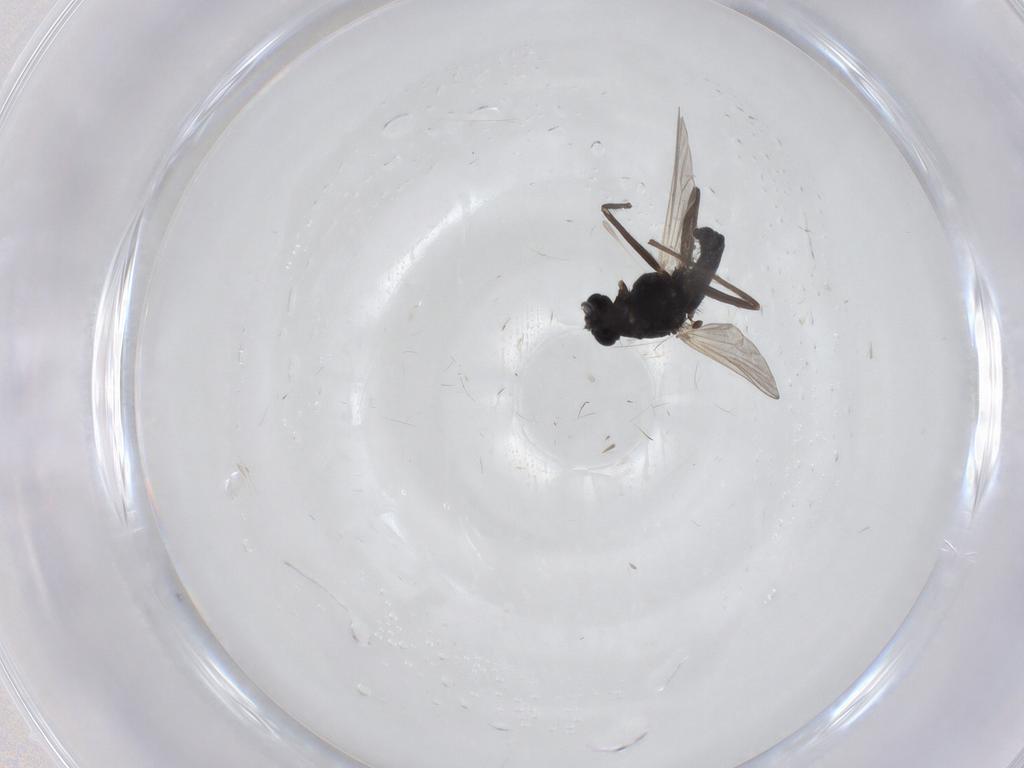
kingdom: Animalia
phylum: Arthropoda
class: Insecta
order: Diptera
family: Chironomidae
